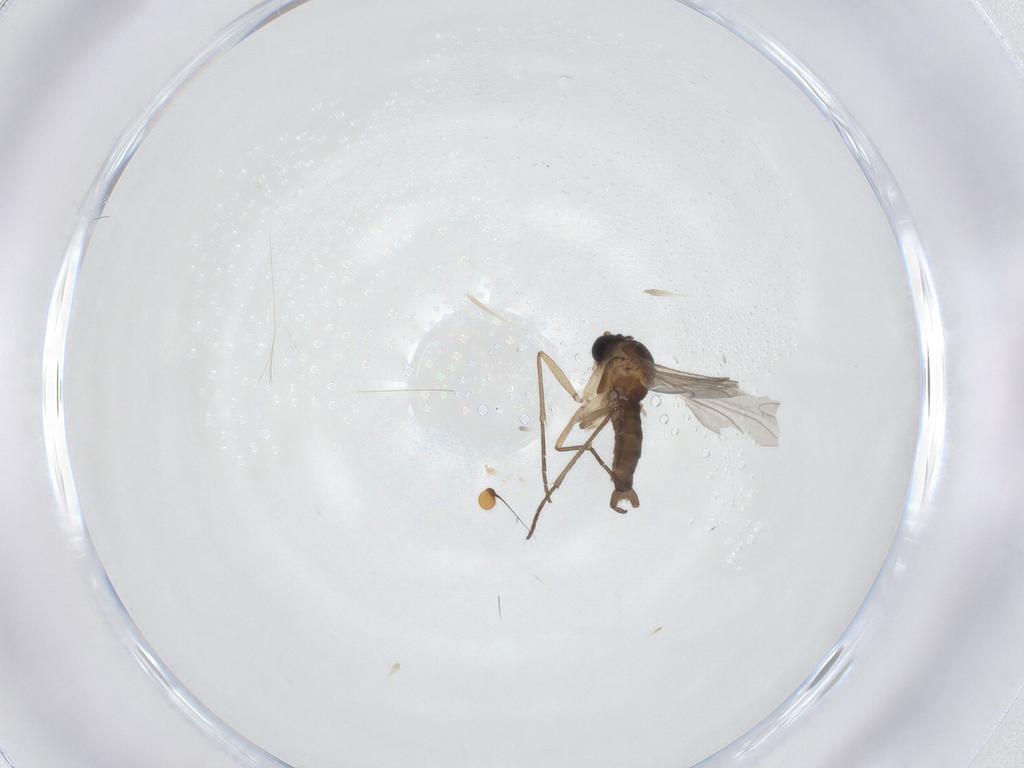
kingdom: Animalia
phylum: Arthropoda
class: Insecta
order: Diptera
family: Sciaridae
